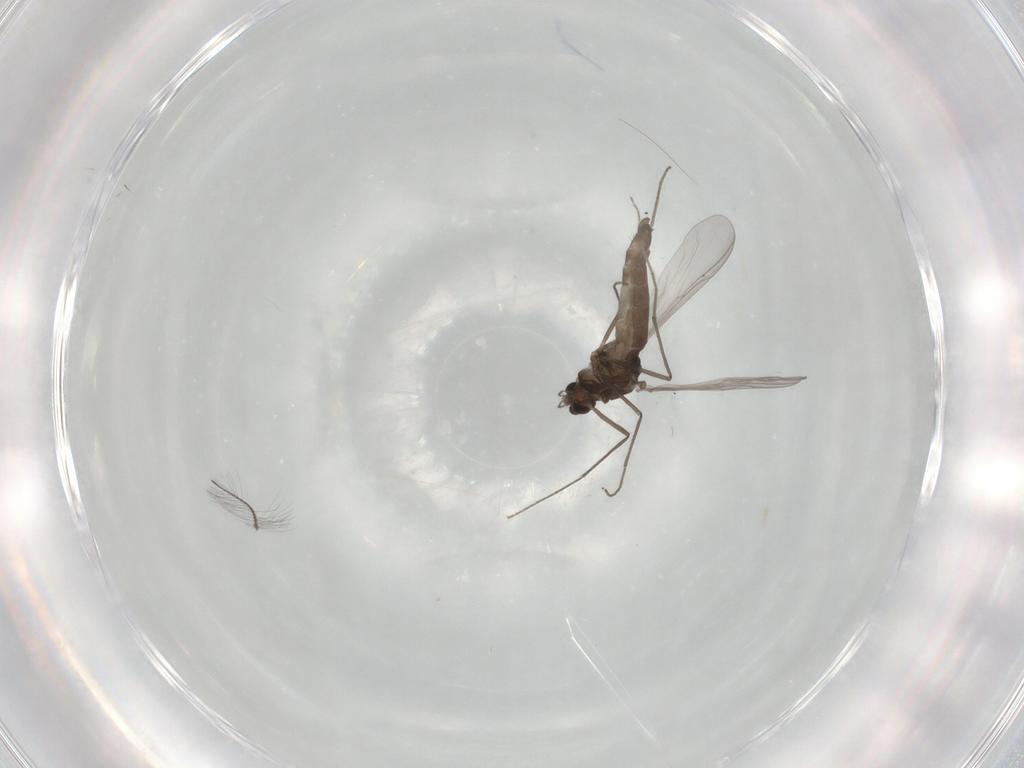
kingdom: Animalia
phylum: Arthropoda
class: Insecta
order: Diptera
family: Chironomidae
